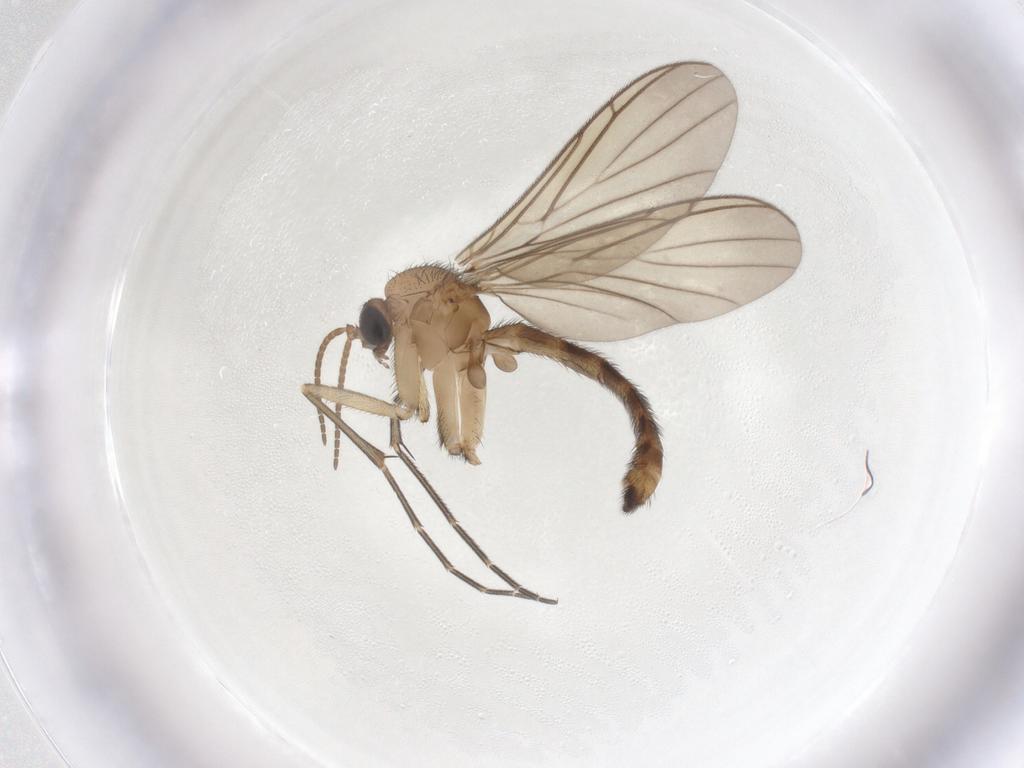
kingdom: Animalia
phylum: Arthropoda
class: Insecta
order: Diptera
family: Keroplatidae
